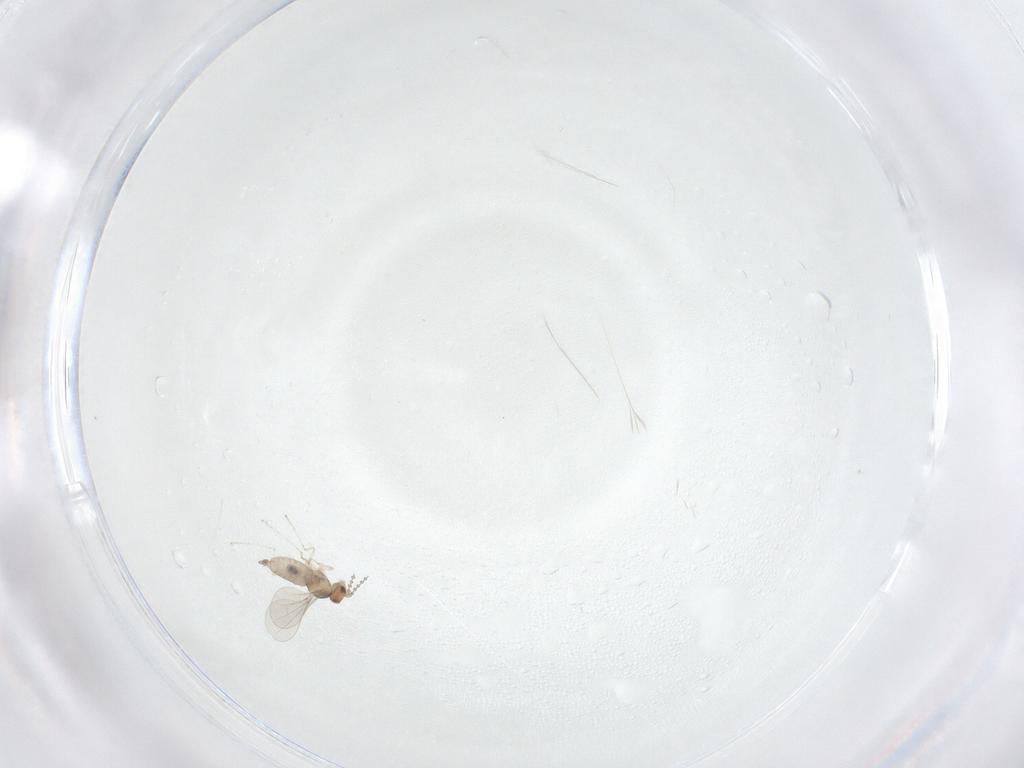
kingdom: Animalia
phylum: Arthropoda
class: Insecta
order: Diptera
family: Cecidomyiidae
